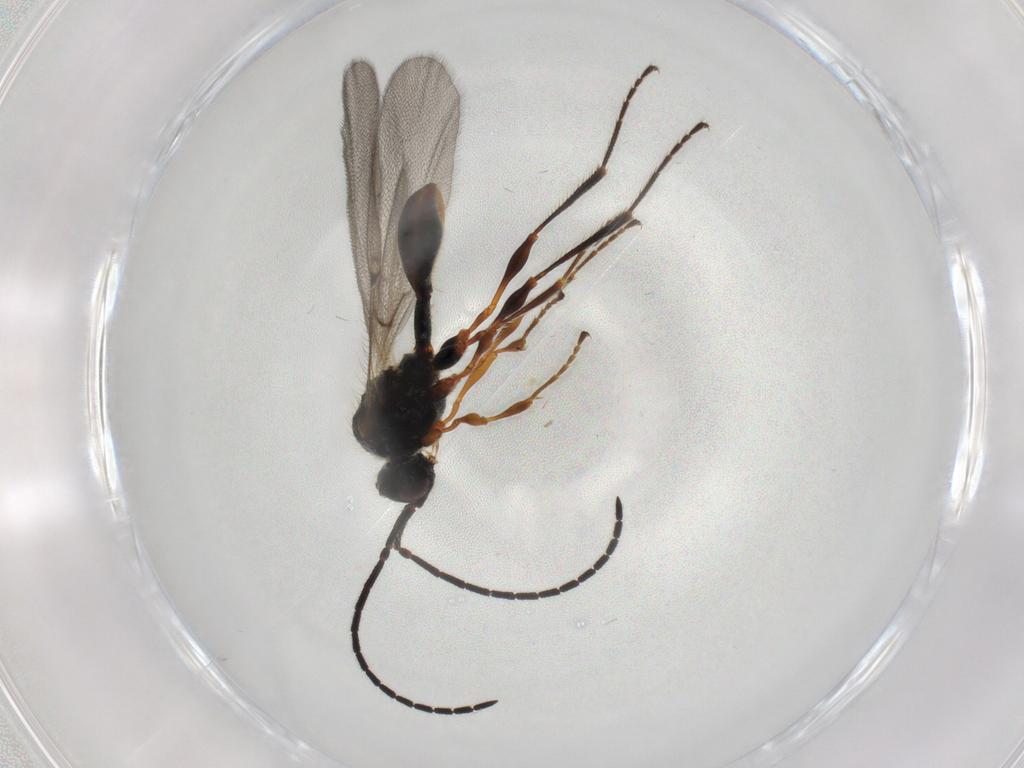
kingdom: Animalia
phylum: Arthropoda
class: Insecta
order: Hymenoptera
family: Diapriidae
